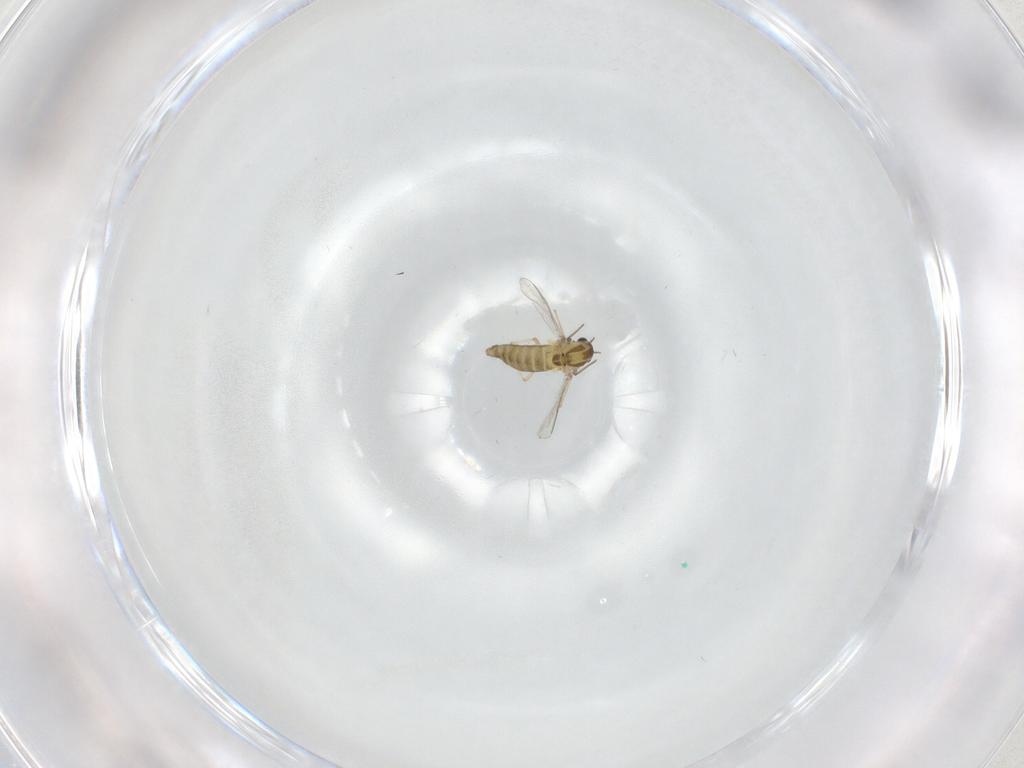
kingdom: Animalia
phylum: Arthropoda
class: Insecta
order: Diptera
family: Chironomidae
